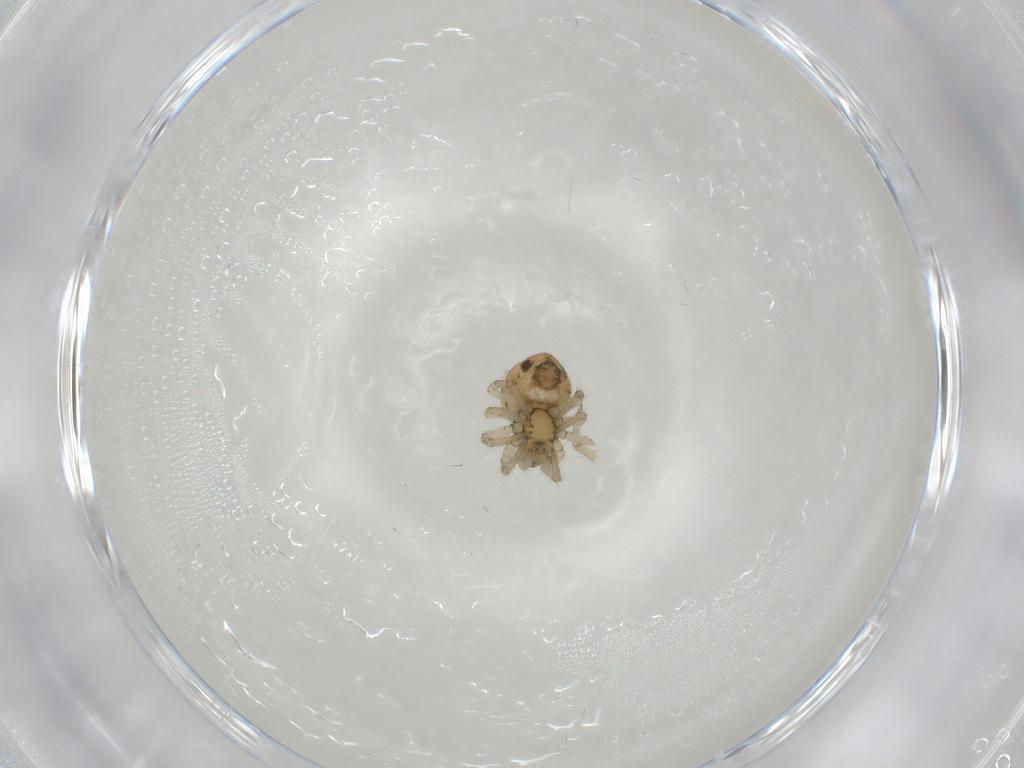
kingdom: Animalia
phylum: Arthropoda
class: Arachnida
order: Araneae
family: Theridiidae
